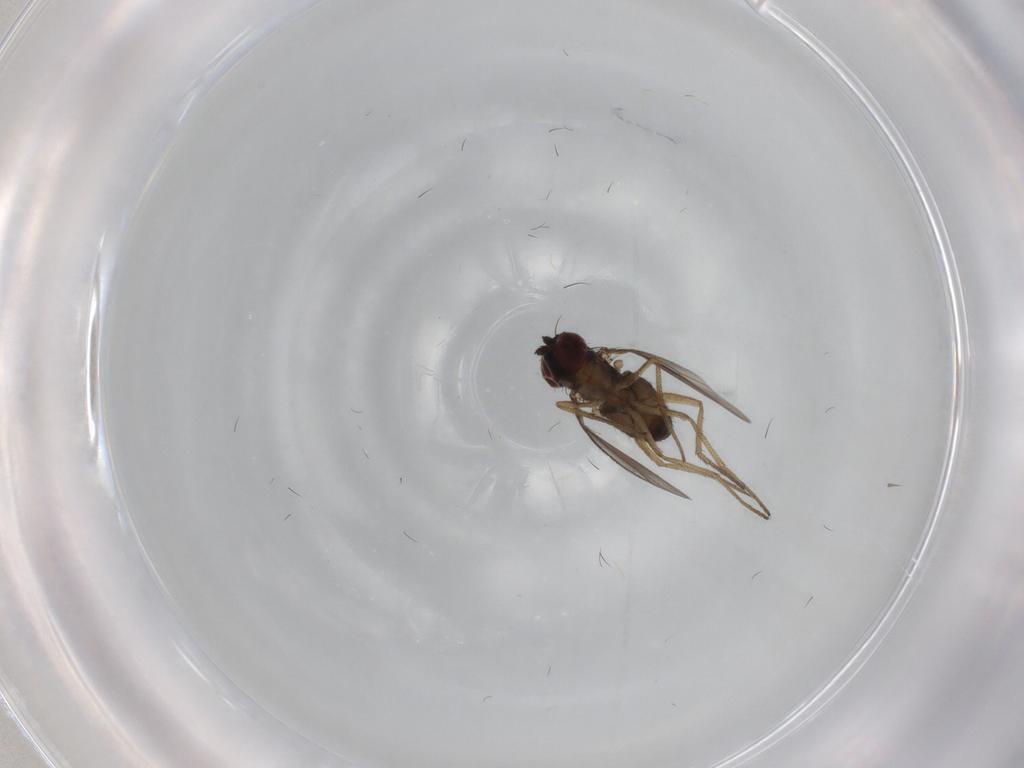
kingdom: Animalia
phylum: Arthropoda
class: Insecta
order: Diptera
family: Dolichopodidae
